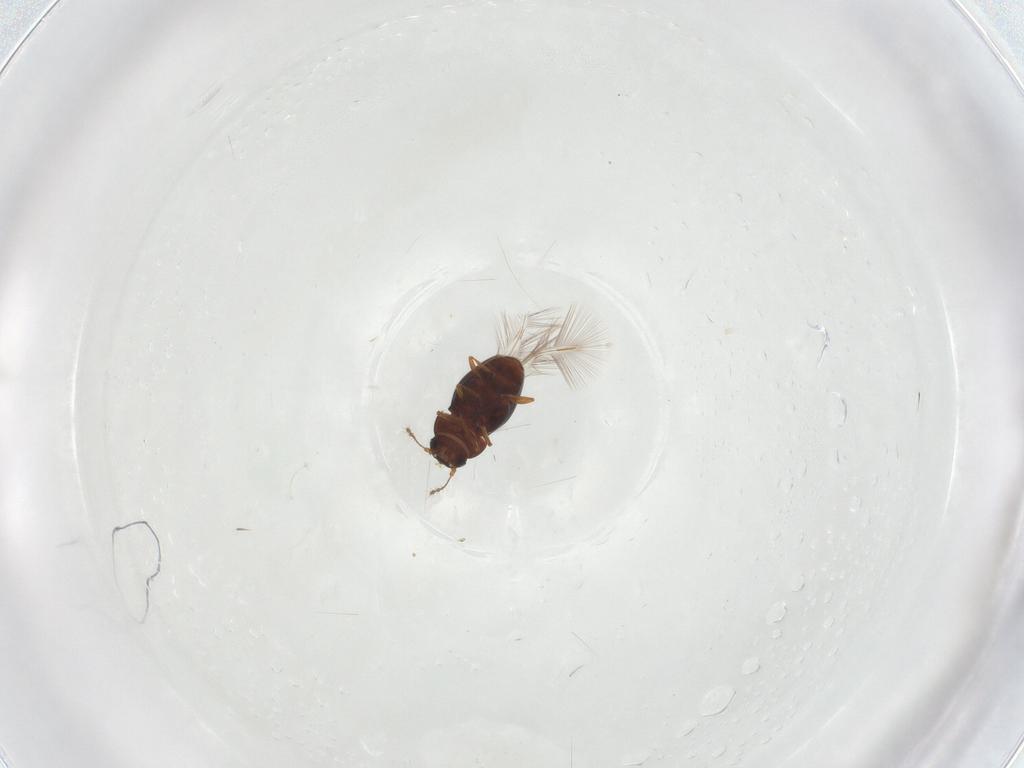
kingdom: Animalia
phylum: Arthropoda
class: Insecta
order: Coleoptera
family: Ptiliidae
